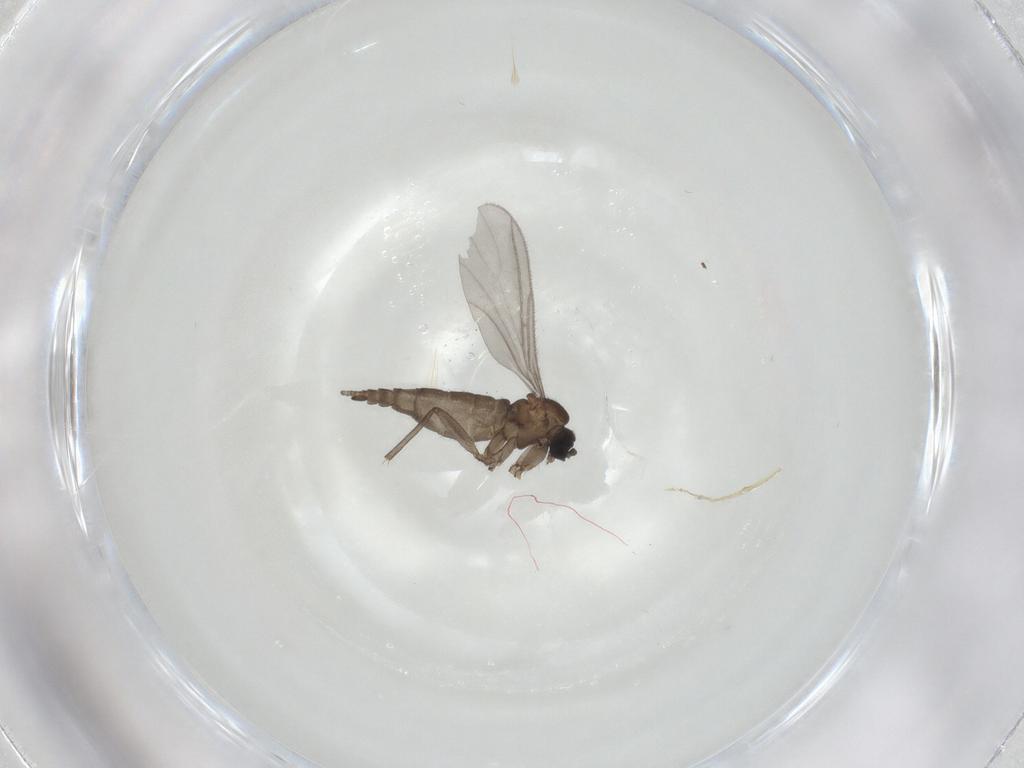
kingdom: Animalia
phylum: Arthropoda
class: Insecta
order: Diptera
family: Sciaridae
